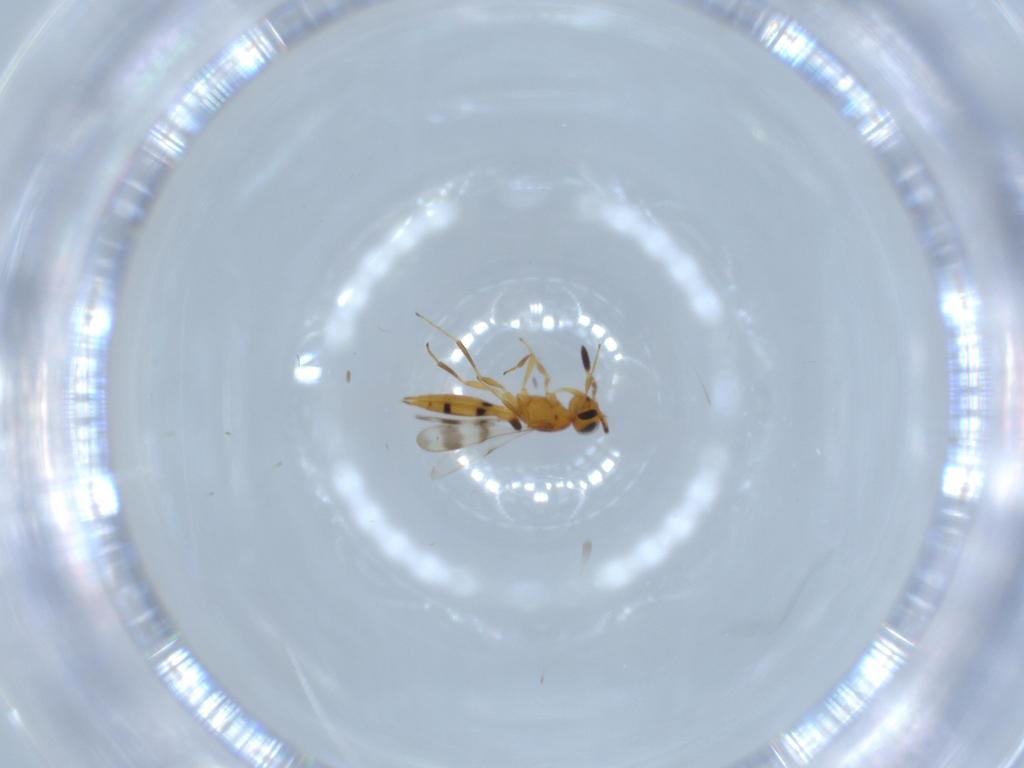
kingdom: Animalia
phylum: Arthropoda
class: Insecta
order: Hymenoptera
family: Scelionidae
